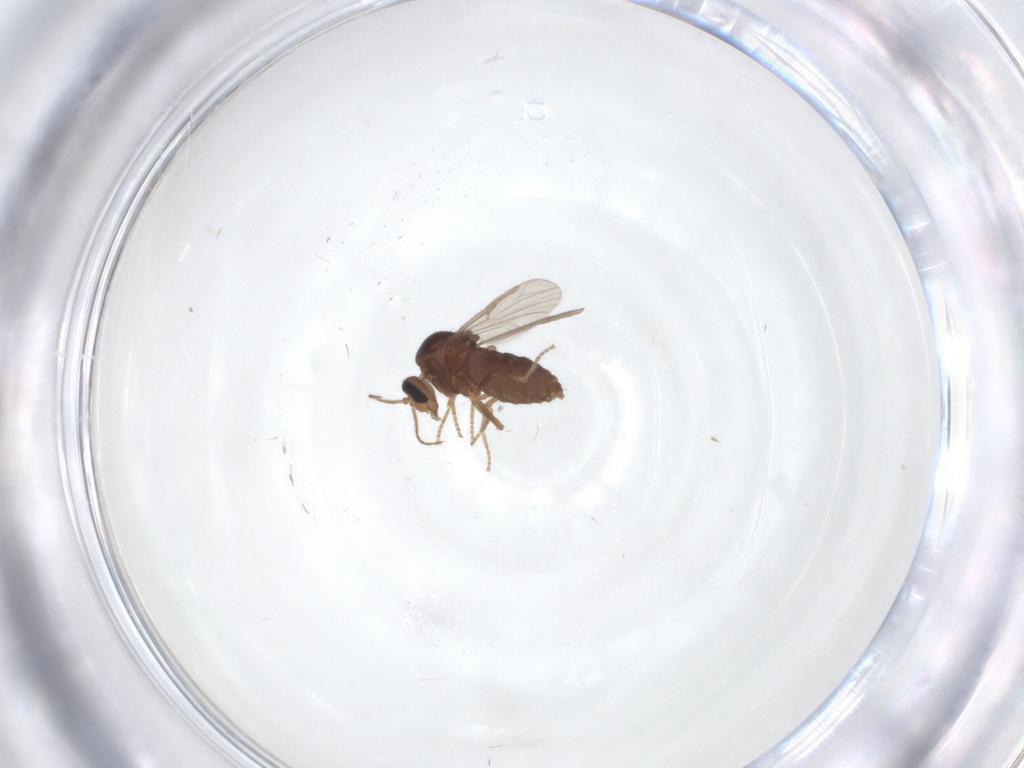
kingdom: Animalia
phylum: Arthropoda
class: Insecta
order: Diptera
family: Ceratopogonidae
